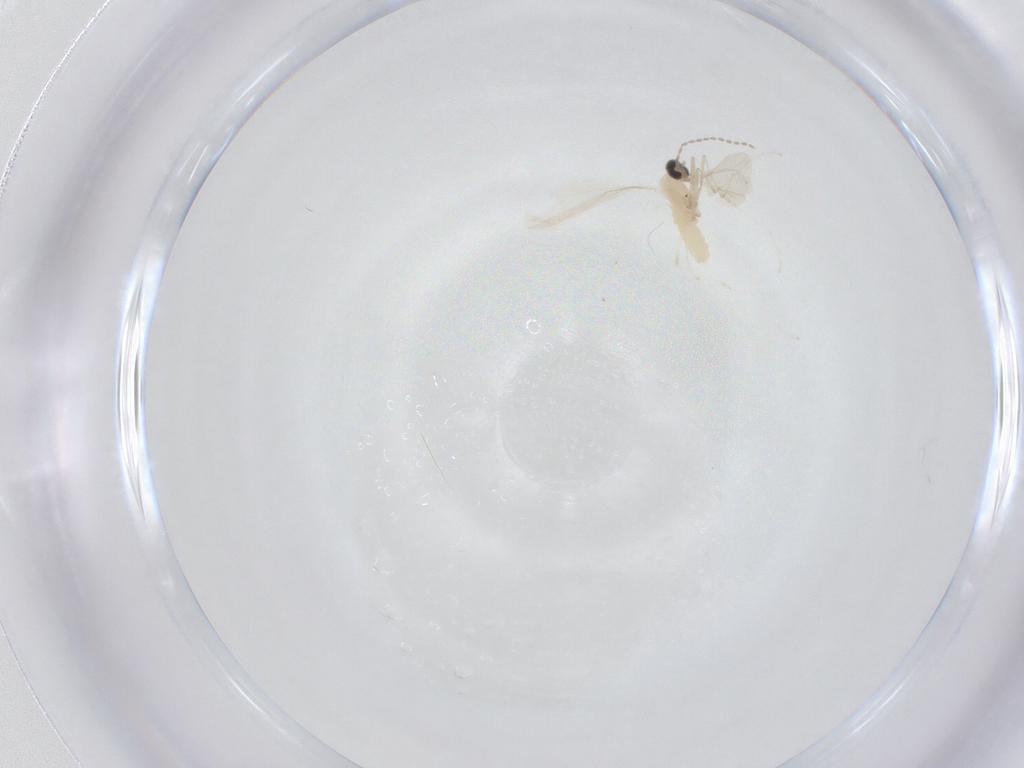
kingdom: Animalia
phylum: Arthropoda
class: Insecta
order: Diptera
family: Cecidomyiidae
